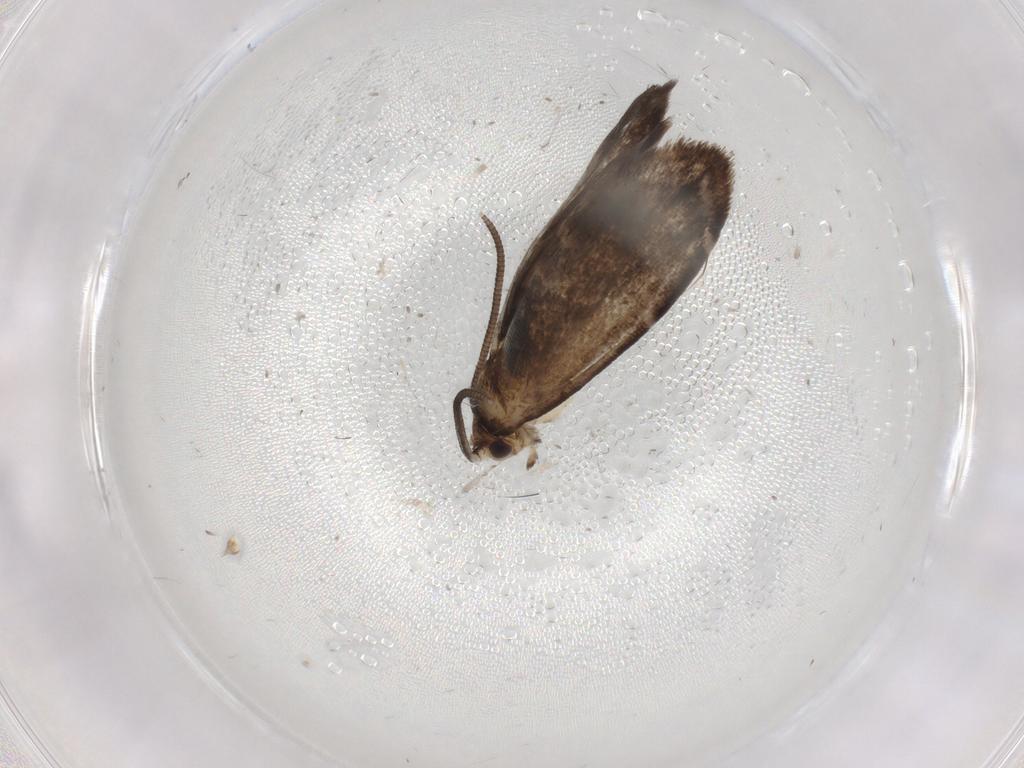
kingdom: Animalia
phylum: Arthropoda
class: Insecta
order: Lepidoptera
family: Dryadaulidae
